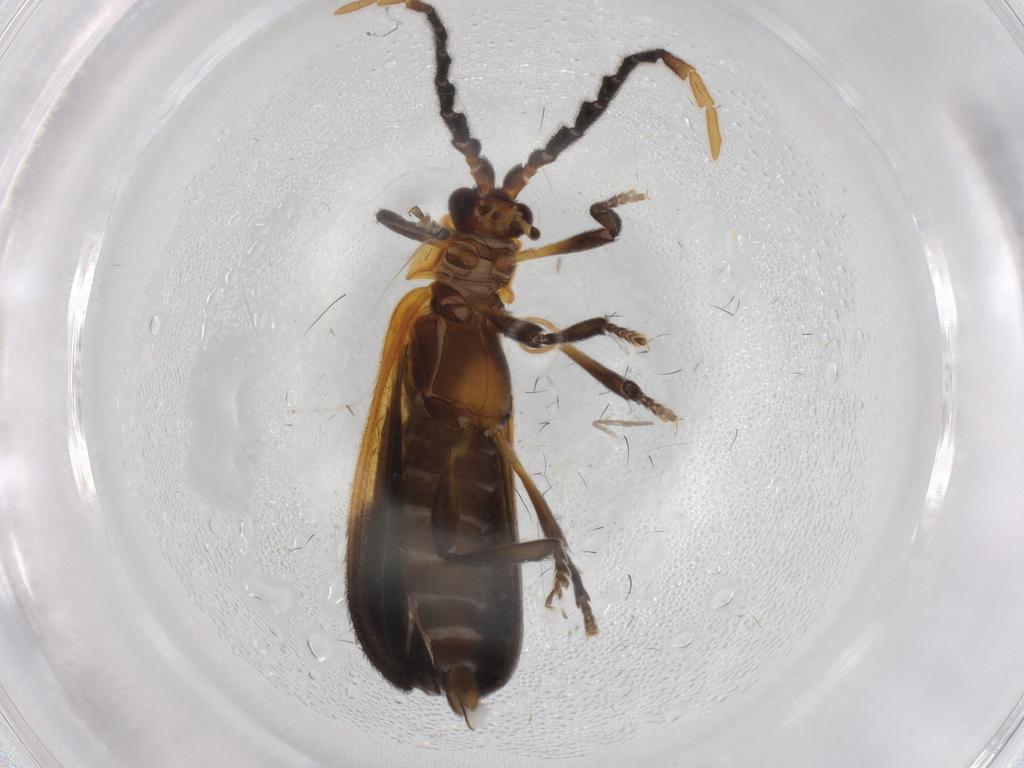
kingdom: Animalia
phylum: Arthropoda
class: Insecta
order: Coleoptera
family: Lycidae
